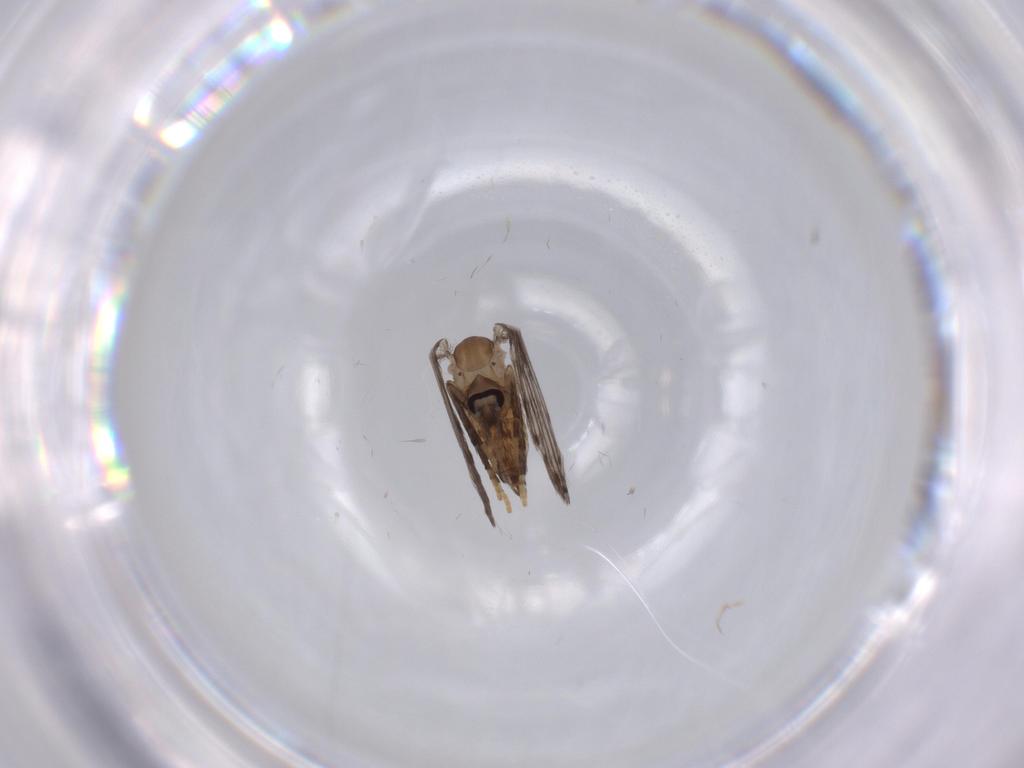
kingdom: Animalia
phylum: Arthropoda
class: Insecta
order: Diptera
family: Psychodidae
